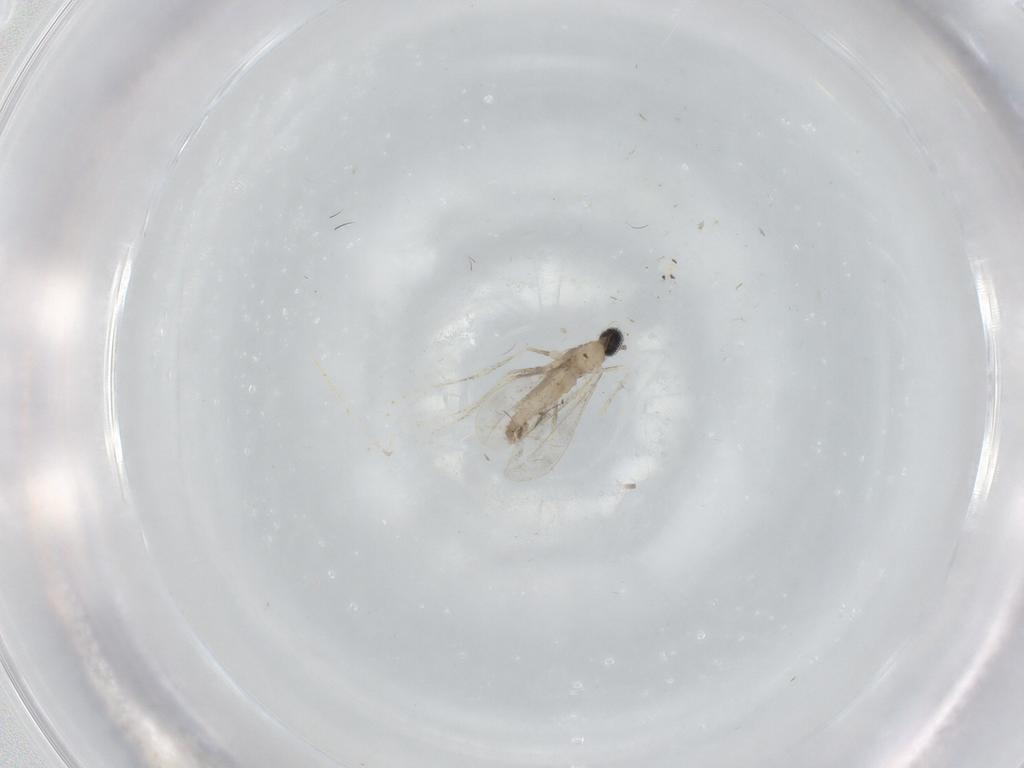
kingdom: Animalia
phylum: Arthropoda
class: Insecta
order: Diptera
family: Cecidomyiidae
